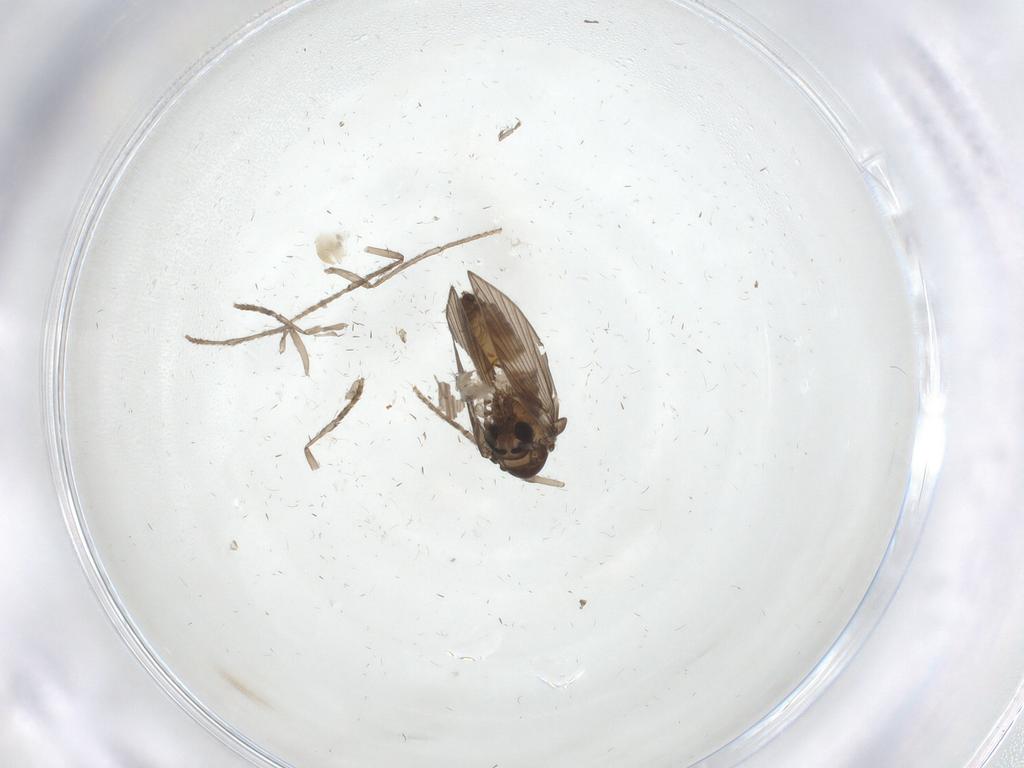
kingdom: Animalia
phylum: Arthropoda
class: Insecta
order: Diptera
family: Psychodidae
